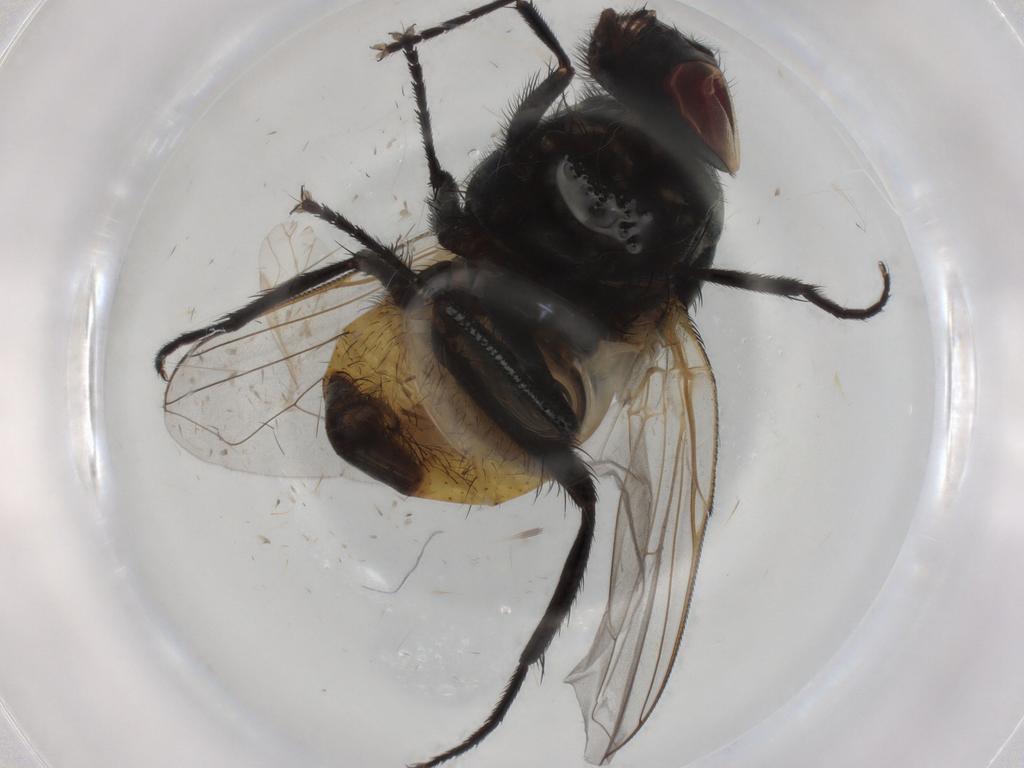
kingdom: Animalia
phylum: Arthropoda
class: Insecta
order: Diptera
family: Muscidae
